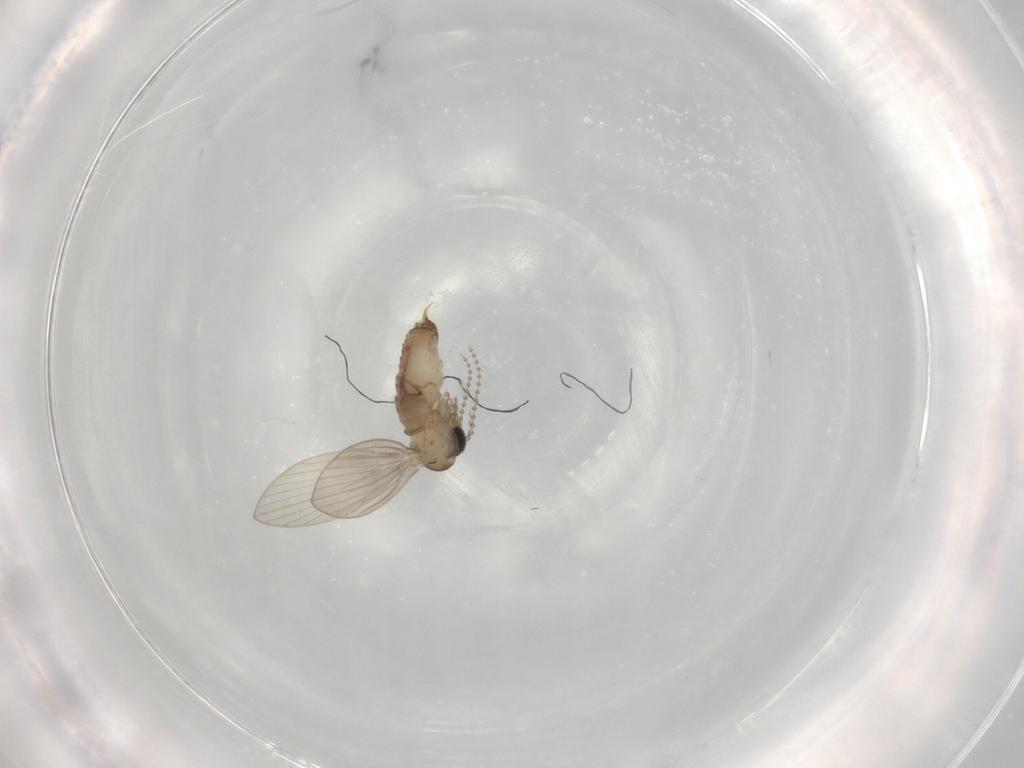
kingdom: Animalia
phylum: Arthropoda
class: Insecta
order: Diptera
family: Psychodidae
